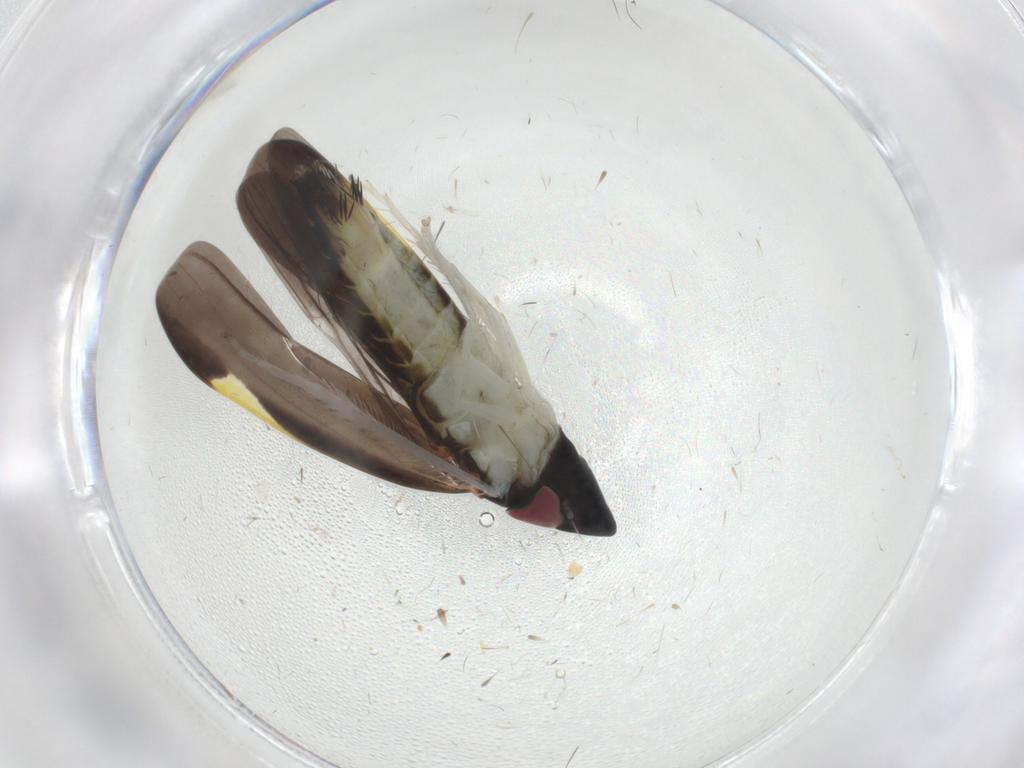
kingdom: Animalia
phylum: Arthropoda
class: Insecta
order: Hemiptera
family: Cicadellidae
